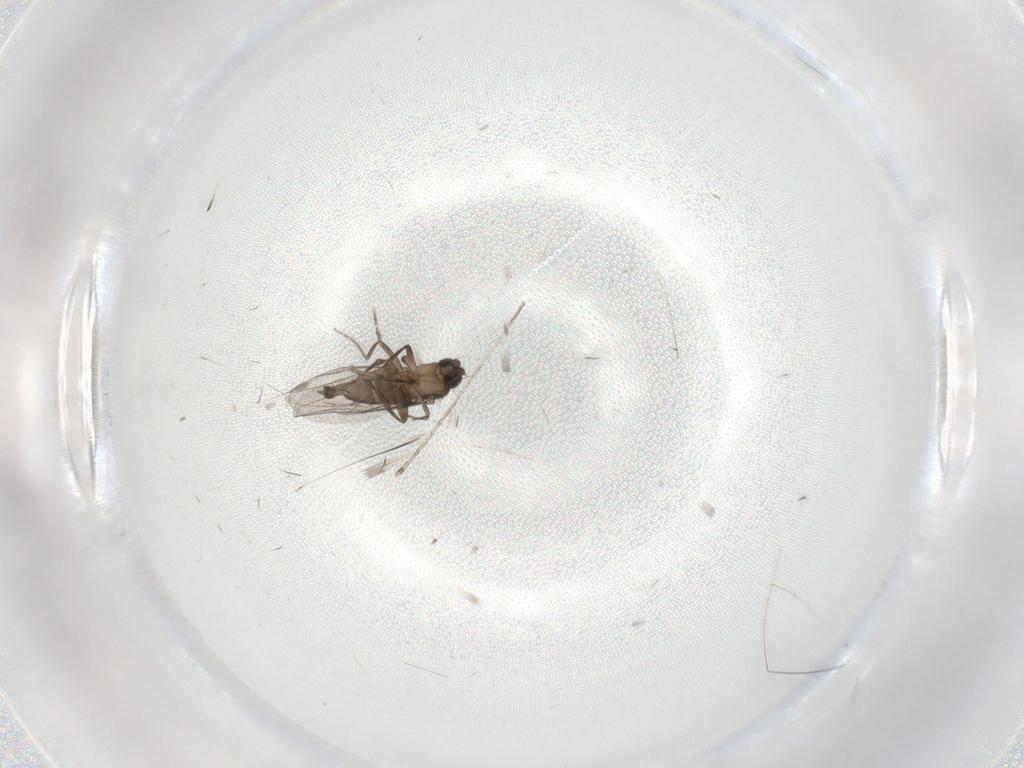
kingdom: Animalia
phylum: Arthropoda
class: Insecta
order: Diptera
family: Phoridae
